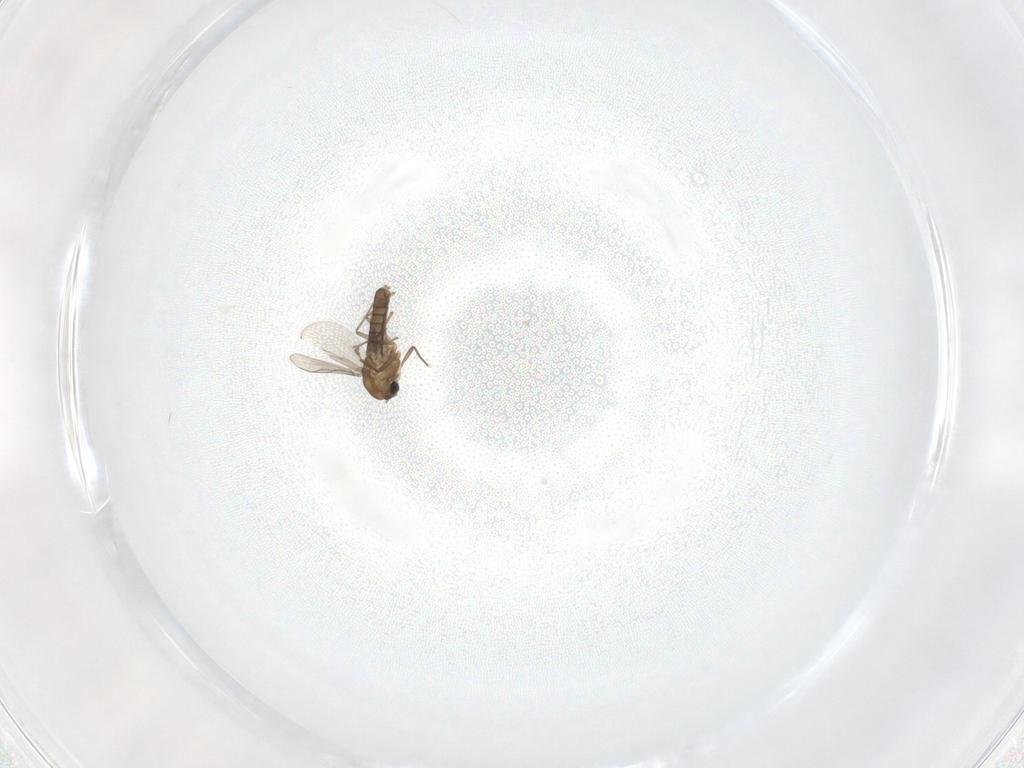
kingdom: Animalia
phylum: Arthropoda
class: Insecta
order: Diptera
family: Chironomidae
